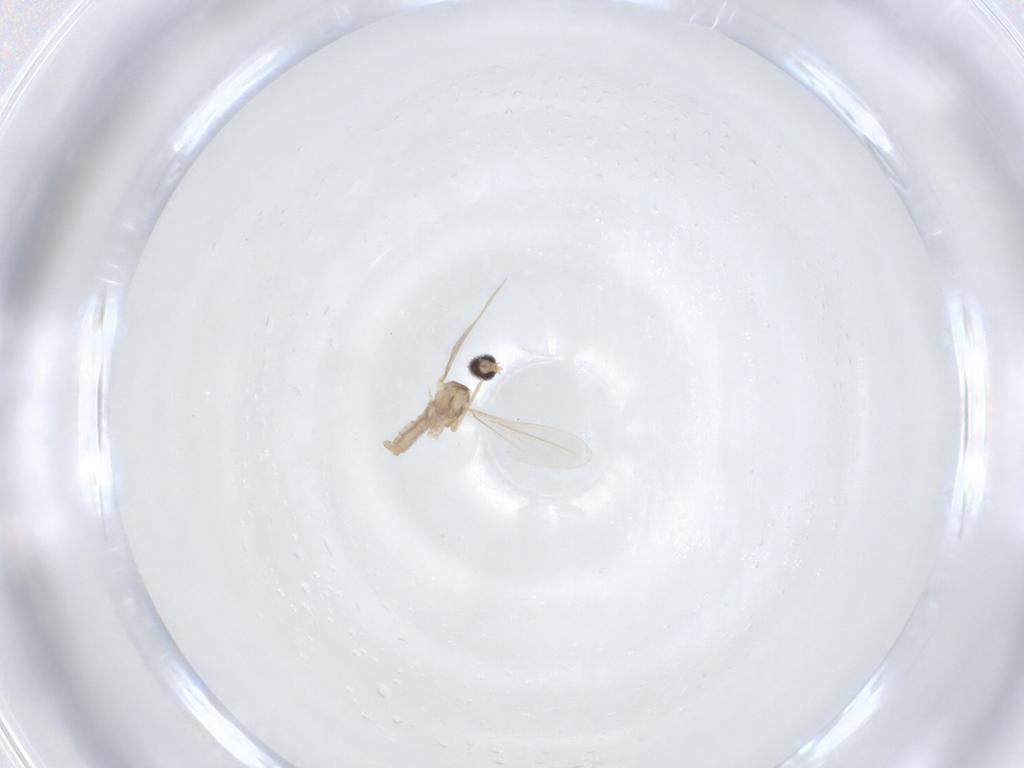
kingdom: Animalia
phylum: Arthropoda
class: Insecta
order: Diptera
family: Cecidomyiidae
